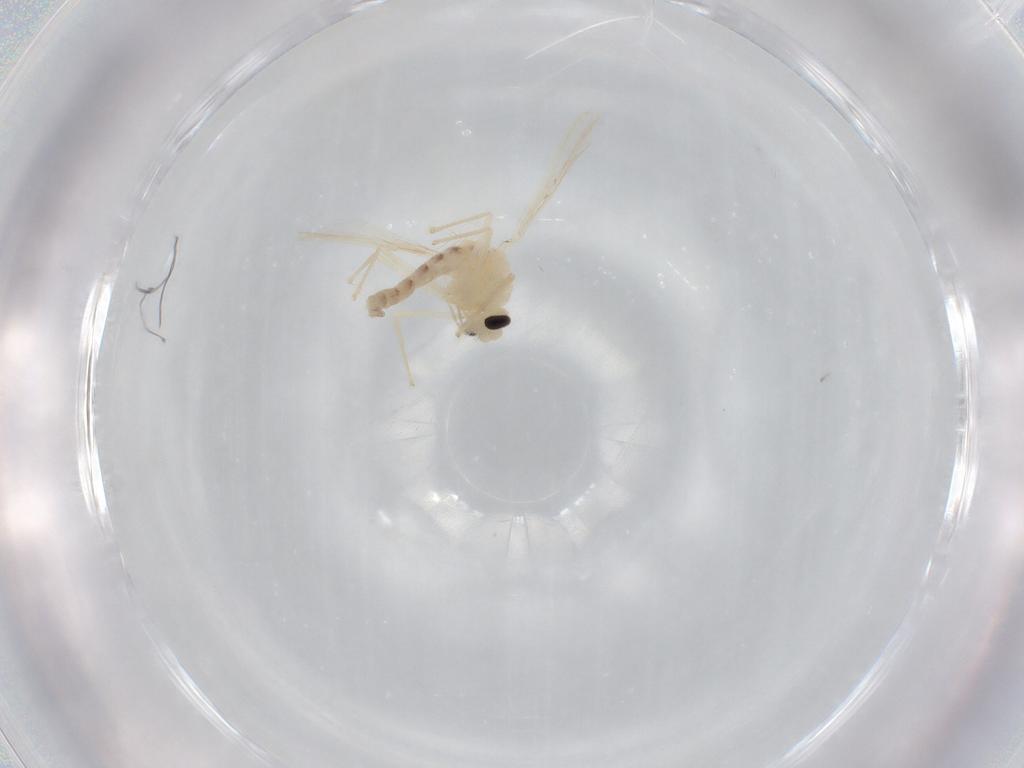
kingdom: Animalia
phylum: Arthropoda
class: Insecta
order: Diptera
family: Chironomidae
